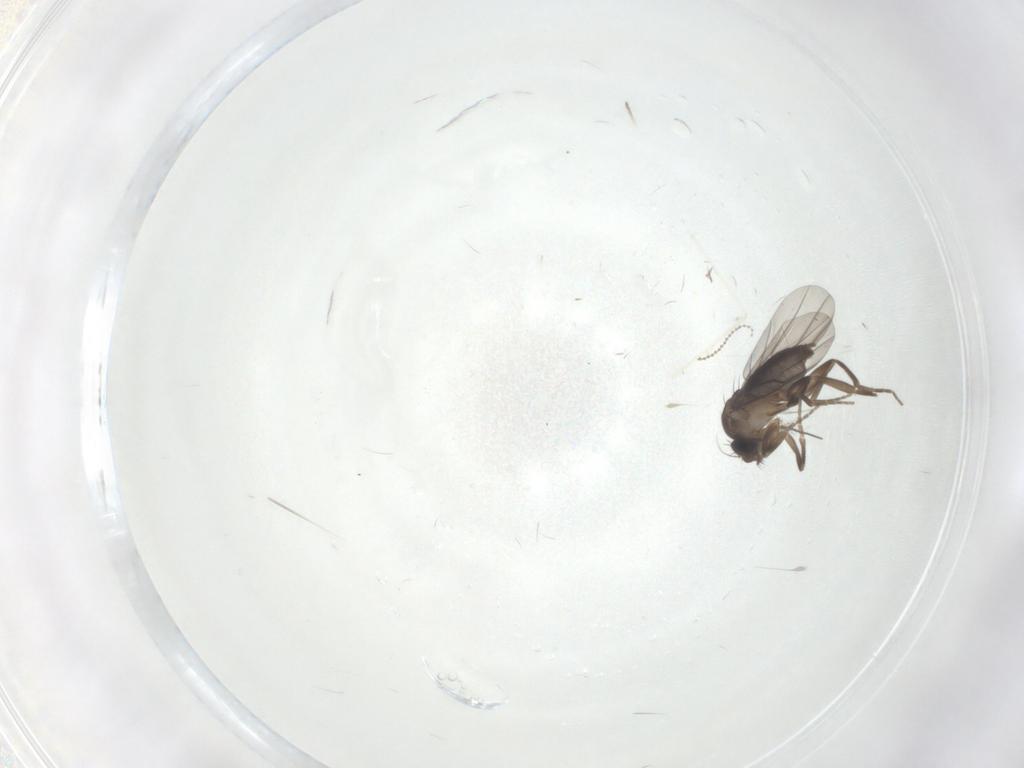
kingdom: Animalia
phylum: Arthropoda
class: Insecta
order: Diptera
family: Cecidomyiidae
